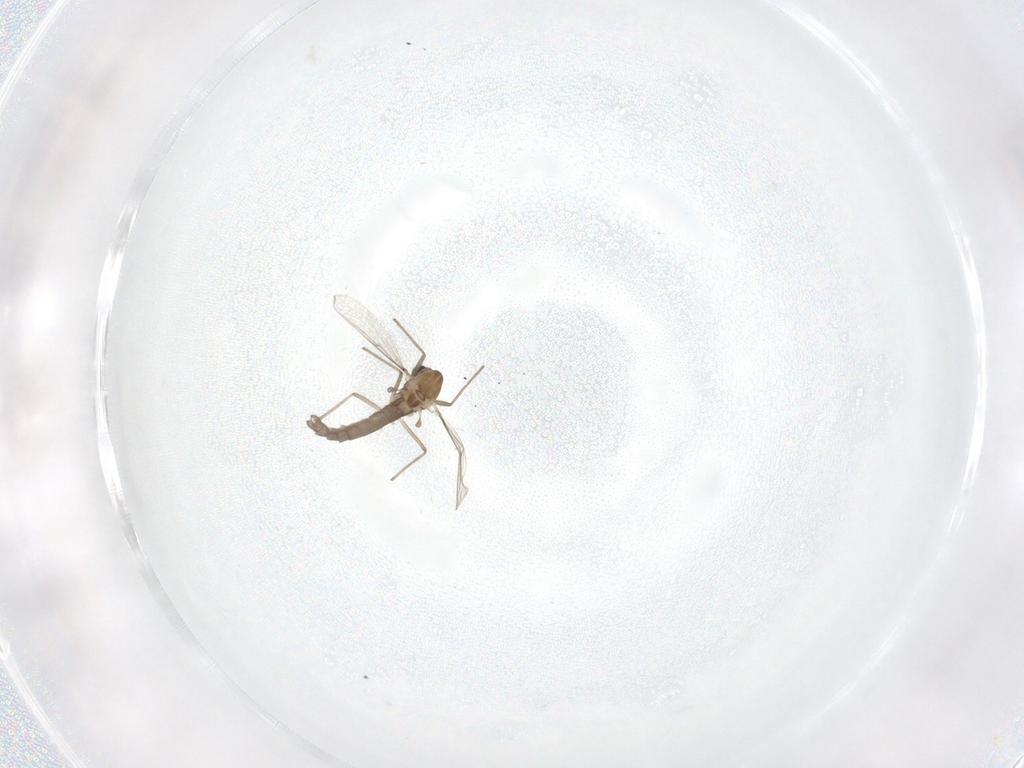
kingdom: Animalia
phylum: Arthropoda
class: Insecta
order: Diptera
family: Chironomidae
